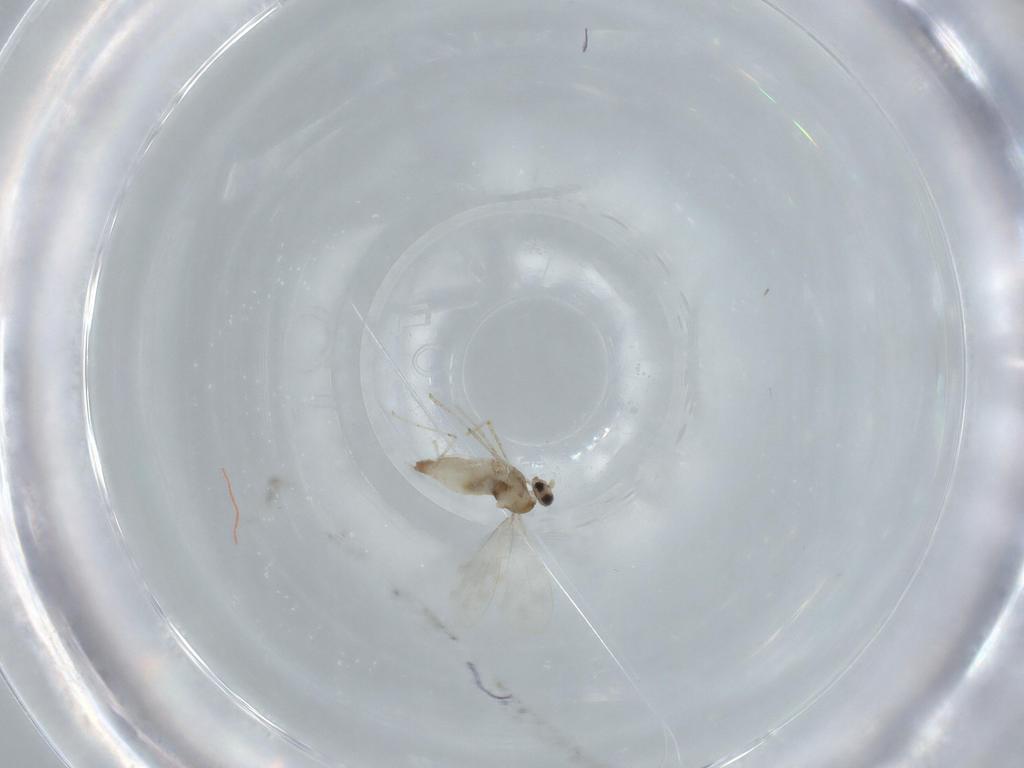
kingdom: Animalia
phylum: Arthropoda
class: Insecta
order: Diptera
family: Cecidomyiidae
